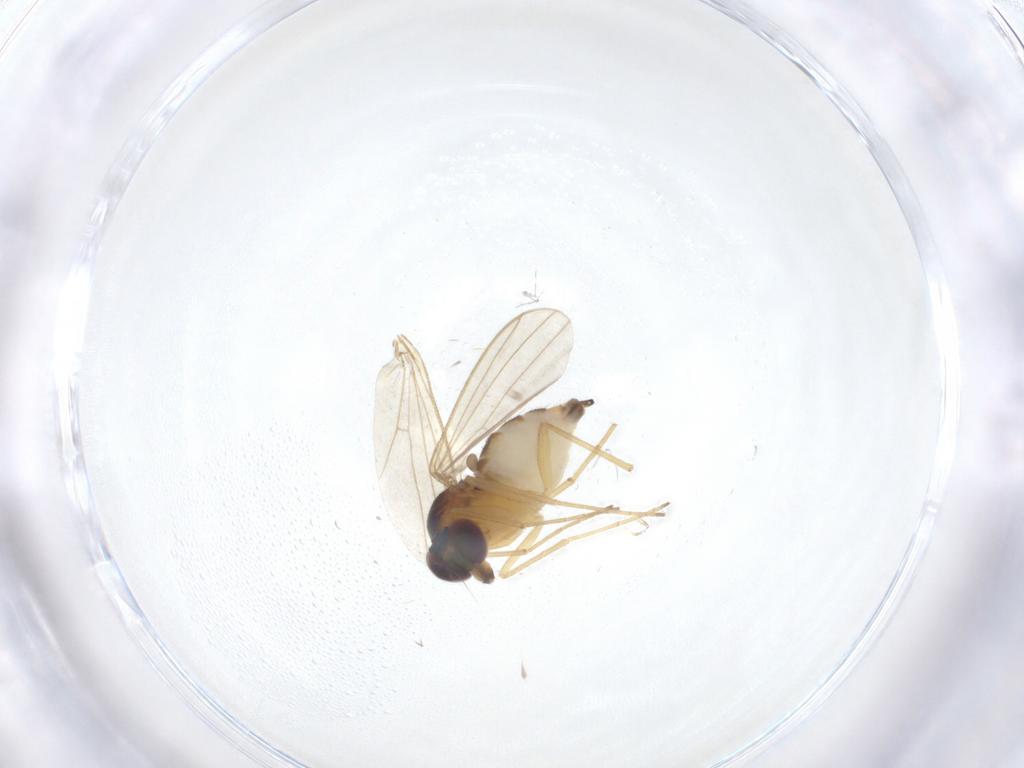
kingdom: Animalia
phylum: Arthropoda
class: Insecta
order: Diptera
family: Dolichopodidae
